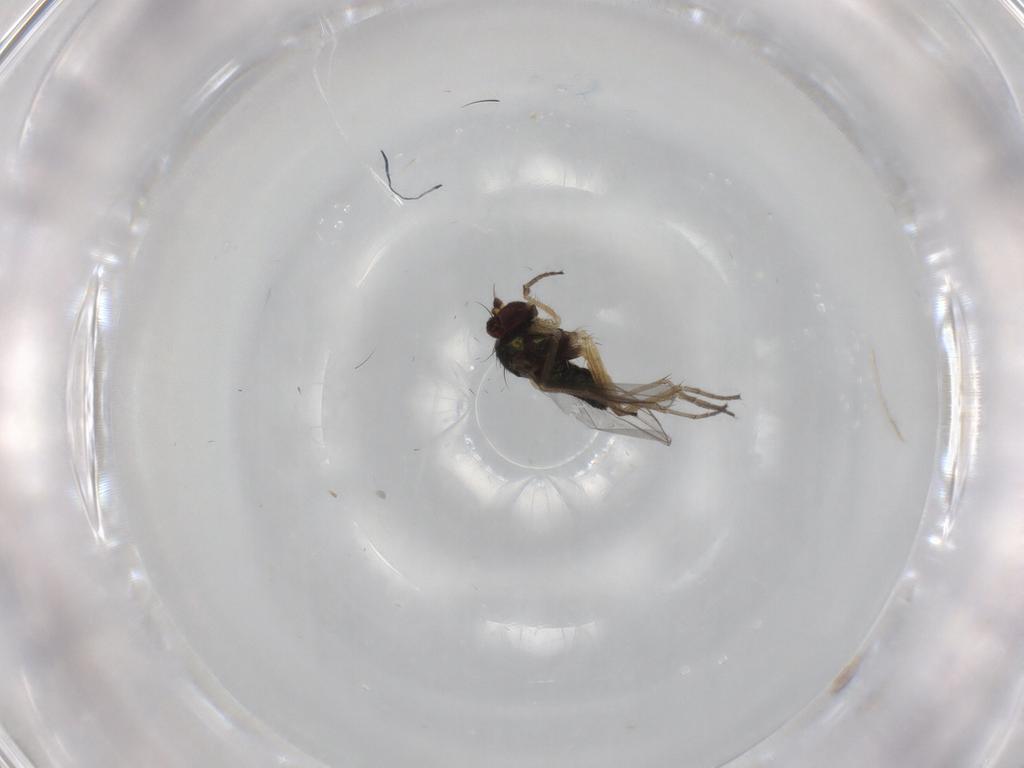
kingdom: Animalia
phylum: Arthropoda
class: Insecta
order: Diptera
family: Dolichopodidae
